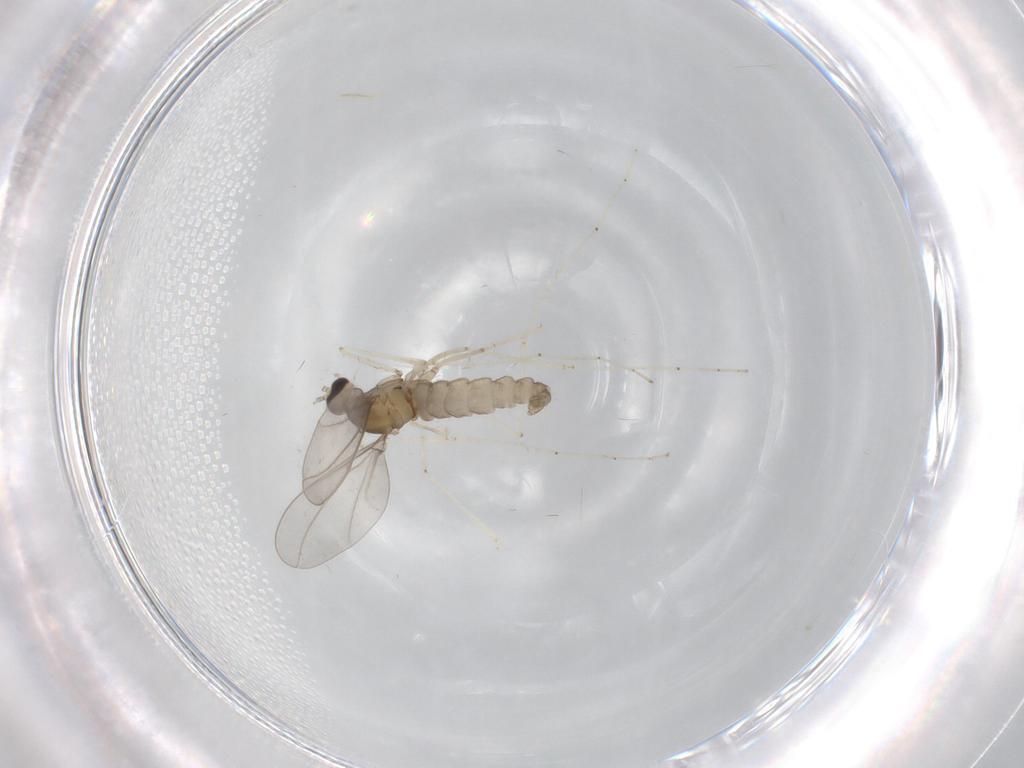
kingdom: Animalia
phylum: Arthropoda
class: Insecta
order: Diptera
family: Cecidomyiidae
